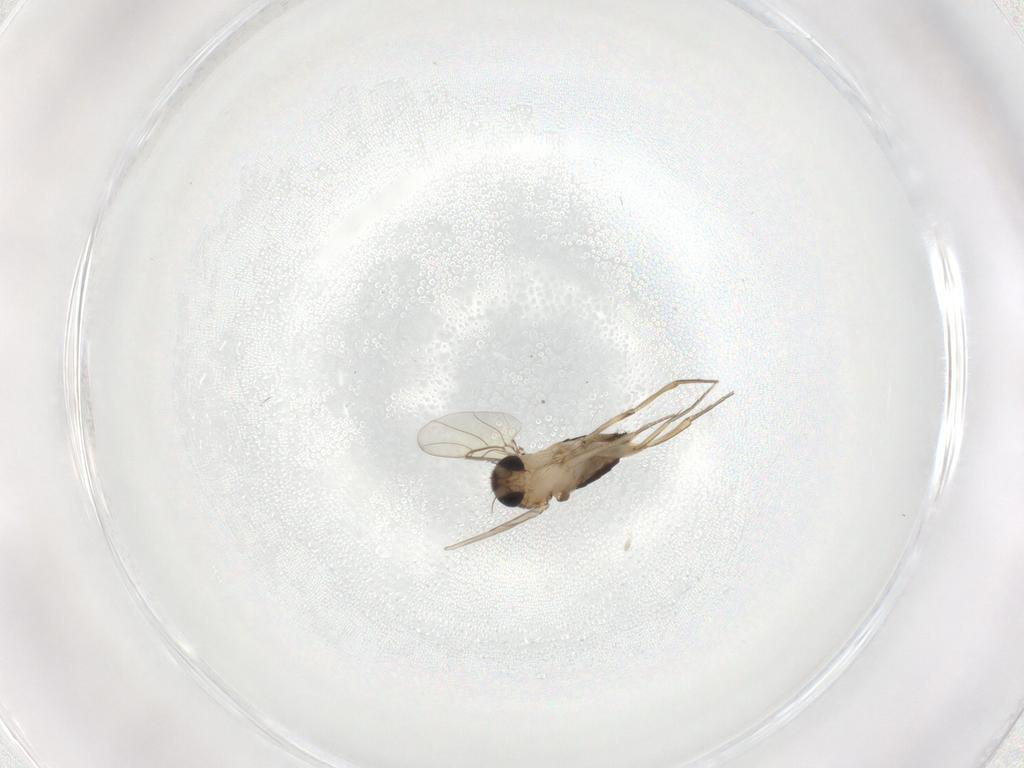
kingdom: Animalia
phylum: Arthropoda
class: Insecta
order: Diptera
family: Phoridae
